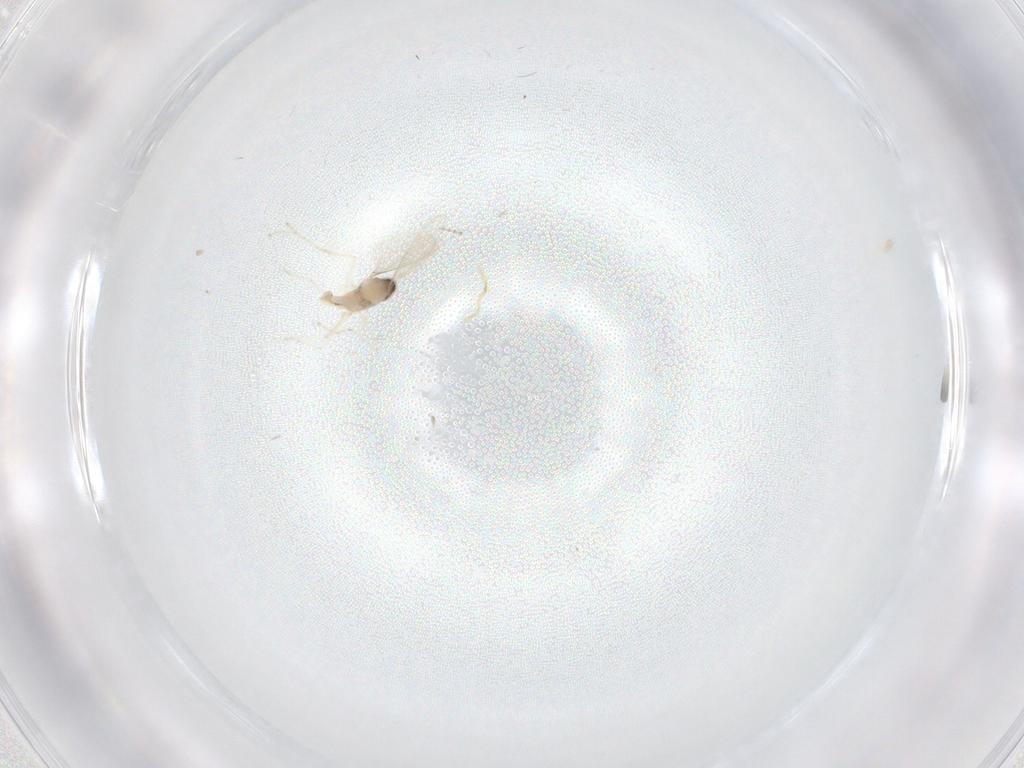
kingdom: Animalia
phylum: Arthropoda
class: Insecta
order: Diptera
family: Cecidomyiidae
